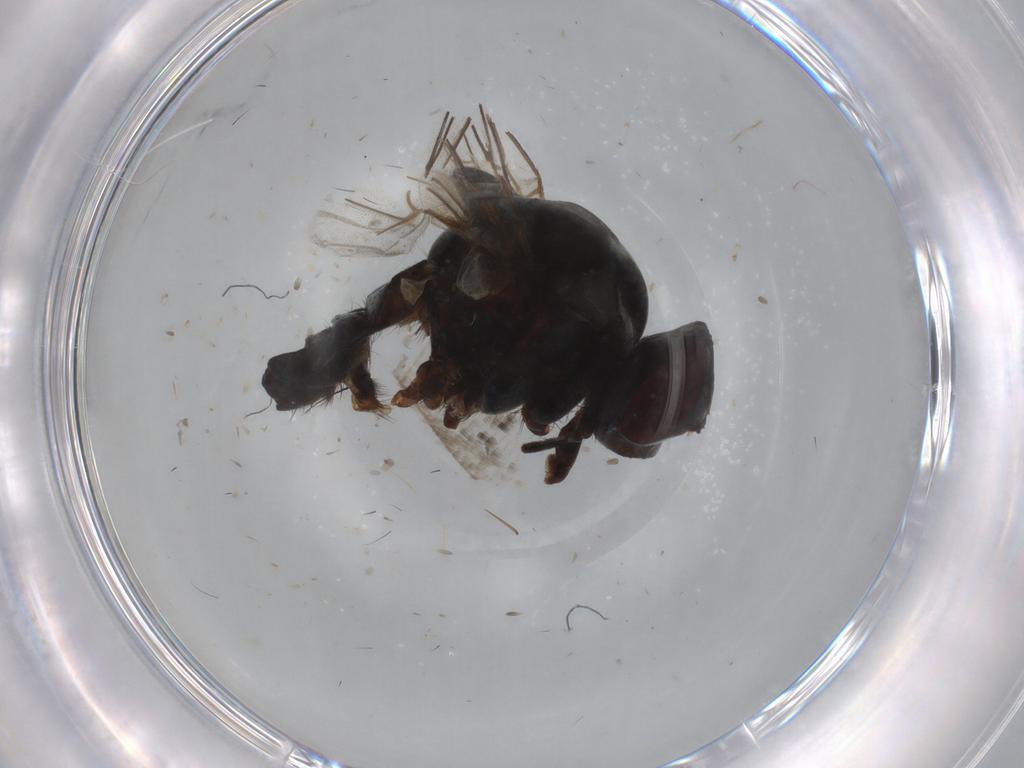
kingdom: Animalia
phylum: Arthropoda
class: Insecta
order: Diptera
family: Anthomyiidae
